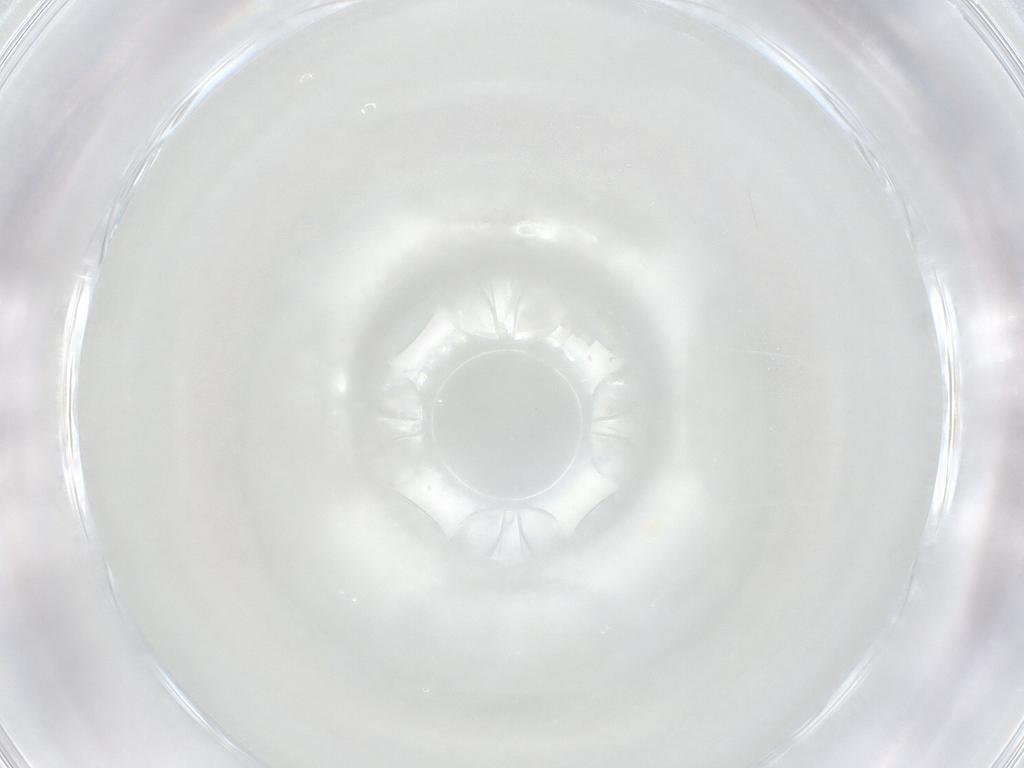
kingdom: Animalia
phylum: Arthropoda
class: Arachnida
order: Trombidiformes
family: Cunaxidae
